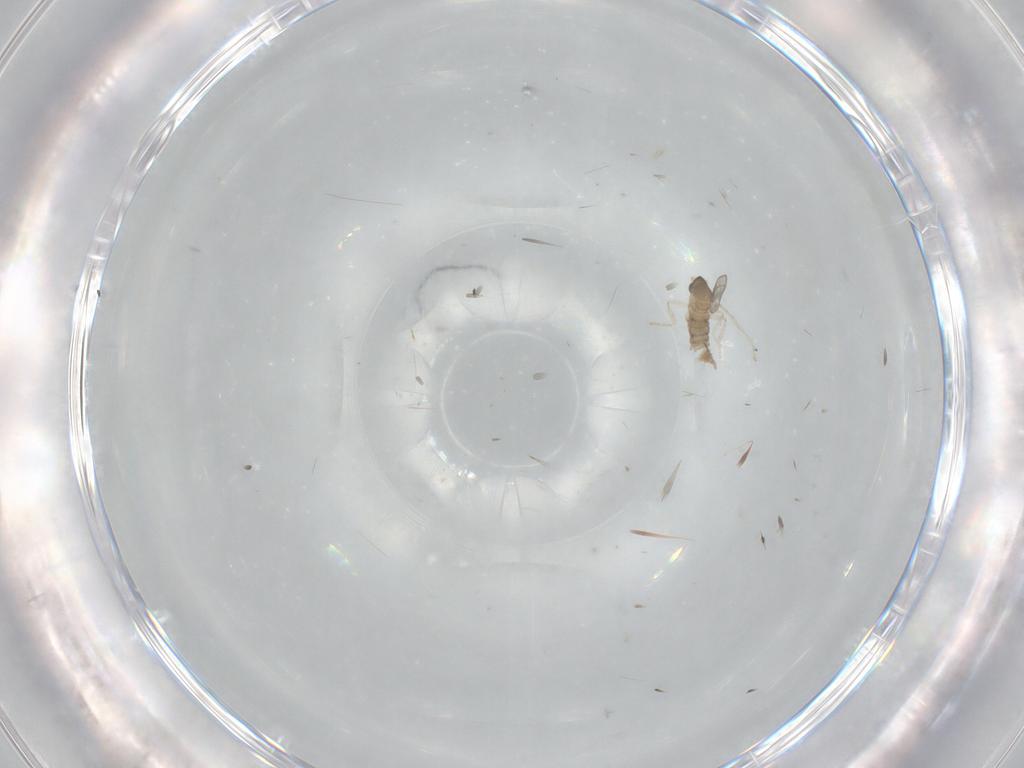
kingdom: Animalia
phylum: Arthropoda
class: Insecta
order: Diptera
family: Cecidomyiidae
